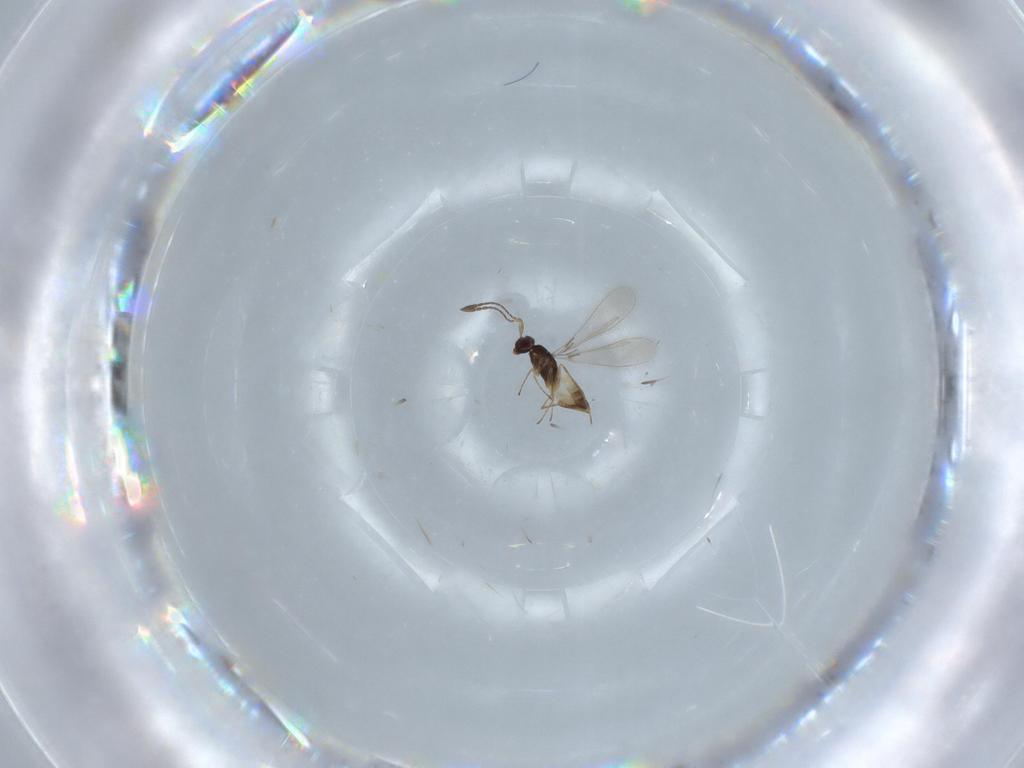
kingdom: Animalia
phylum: Arthropoda
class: Insecta
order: Hymenoptera
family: Mymaridae
